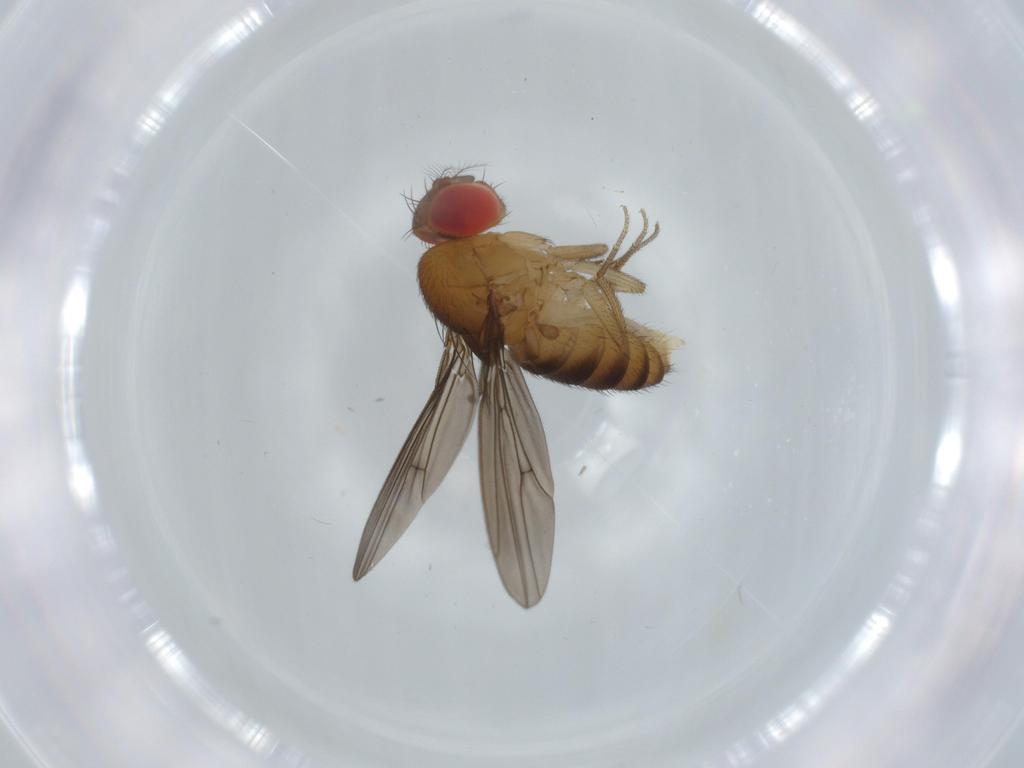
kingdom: Animalia
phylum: Arthropoda
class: Insecta
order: Diptera
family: Drosophilidae
